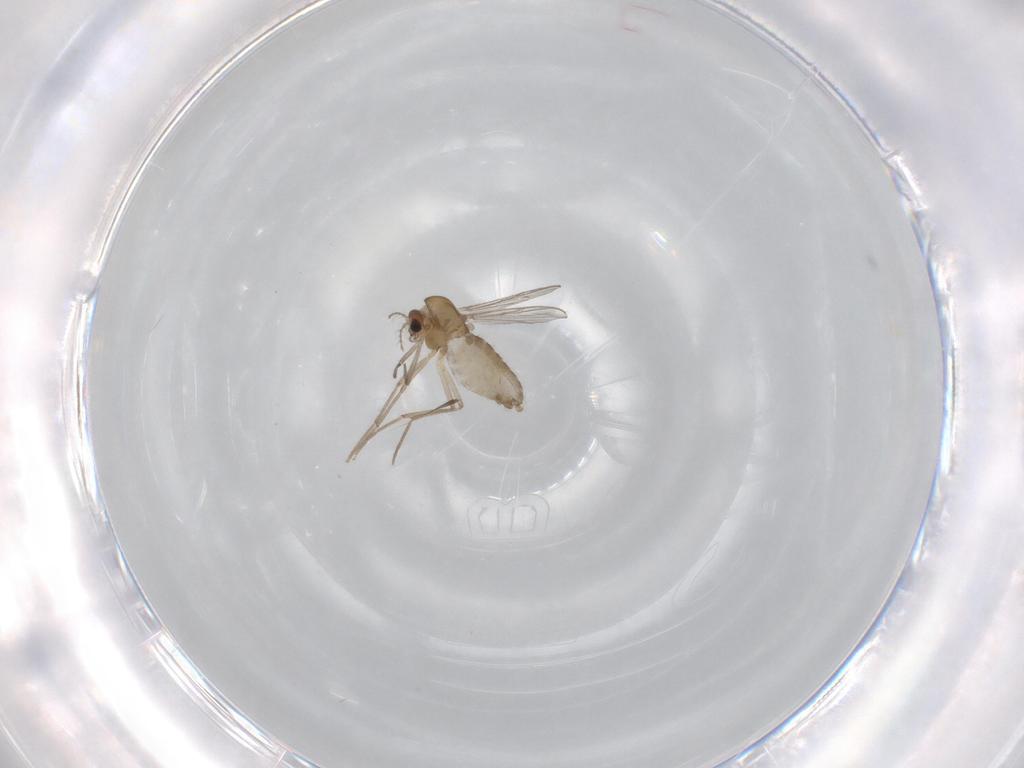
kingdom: Animalia
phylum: Arthropoda
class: Insecta
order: Diptera
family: Chironomidae
